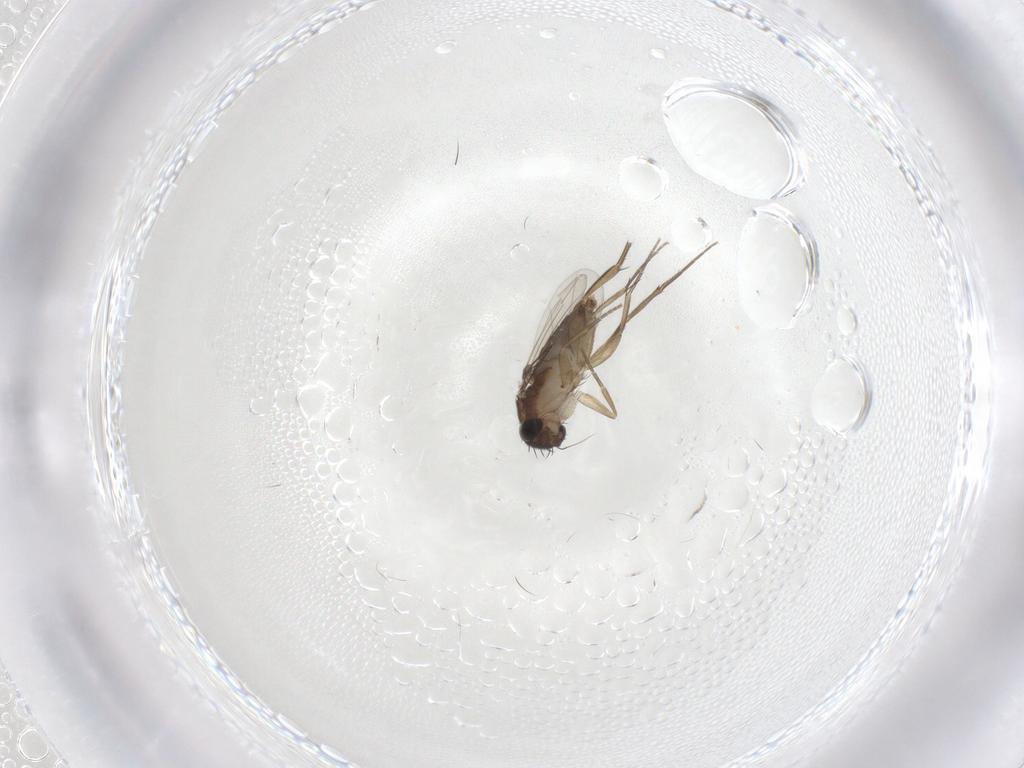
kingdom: Animalia
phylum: Arthropoda
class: Insecta
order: Diptera
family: Phoridae
